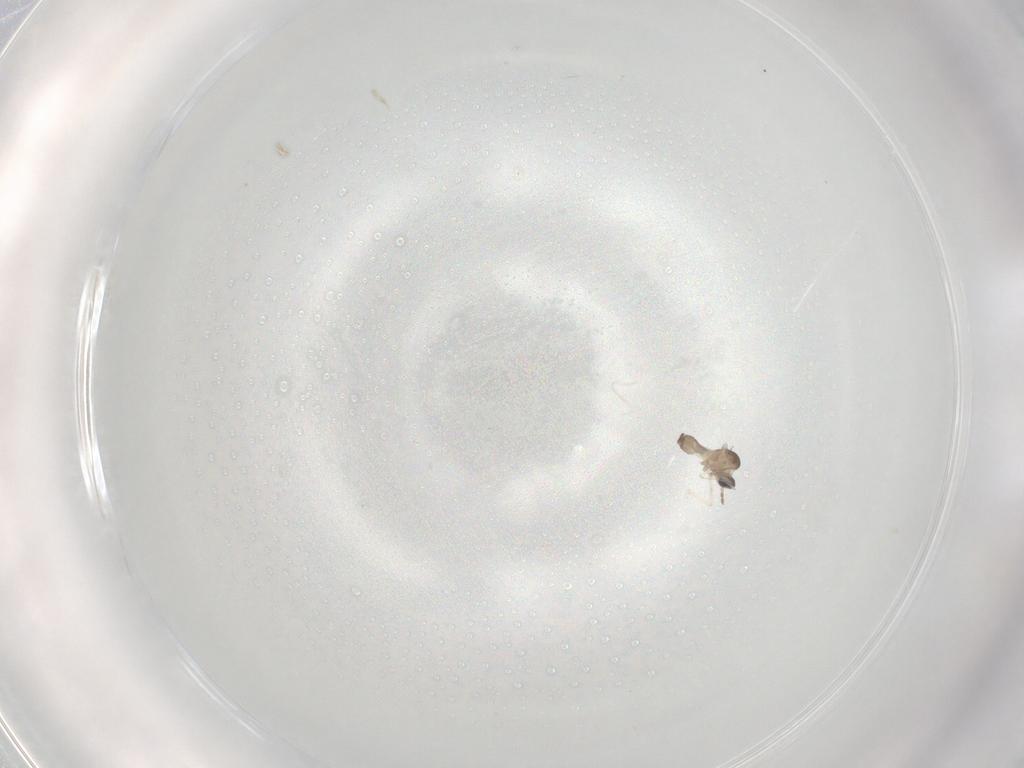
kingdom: Animalia
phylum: Arthropoda
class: Insecta
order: Diptera
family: Cecidomyiidae
